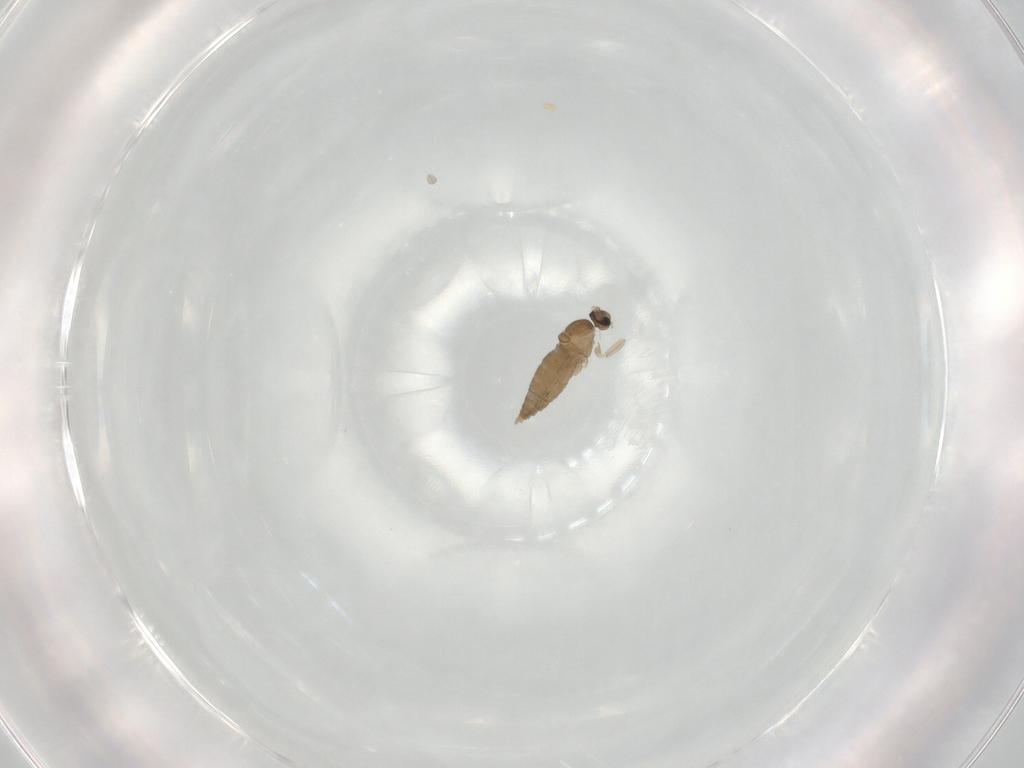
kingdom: Animalia
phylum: Arthropoda
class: Insecta
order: Diptera
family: Cecidomyiidae
